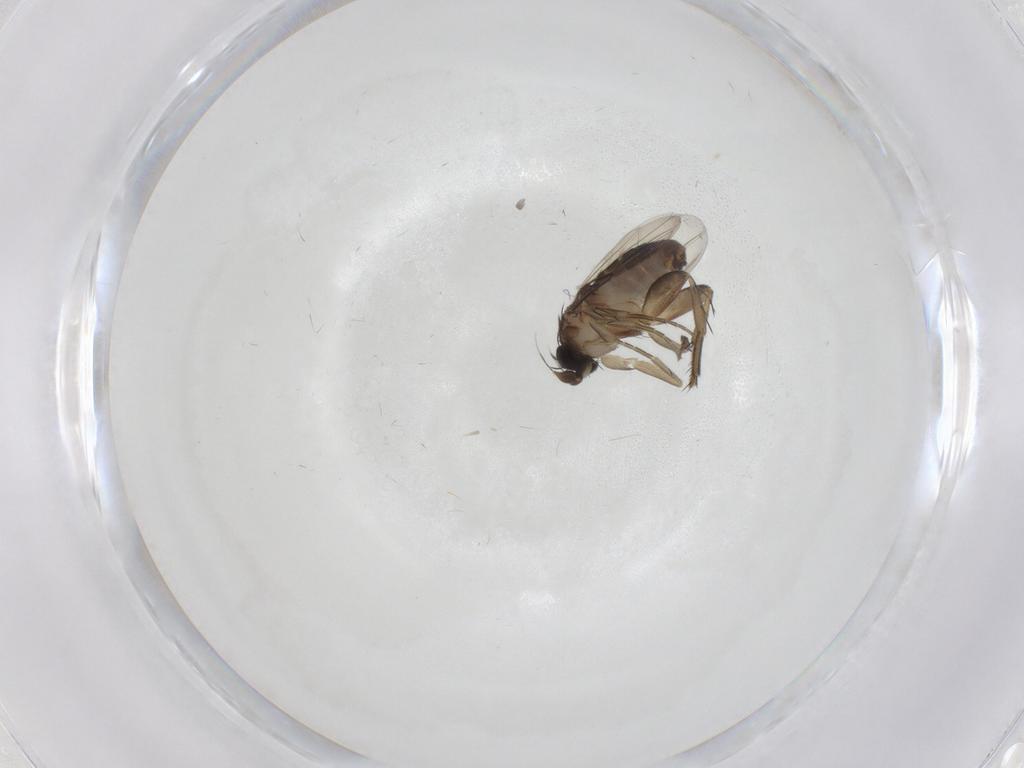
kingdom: Animalia
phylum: Arthropoda
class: Insecta
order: Diptera
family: Phoridae
